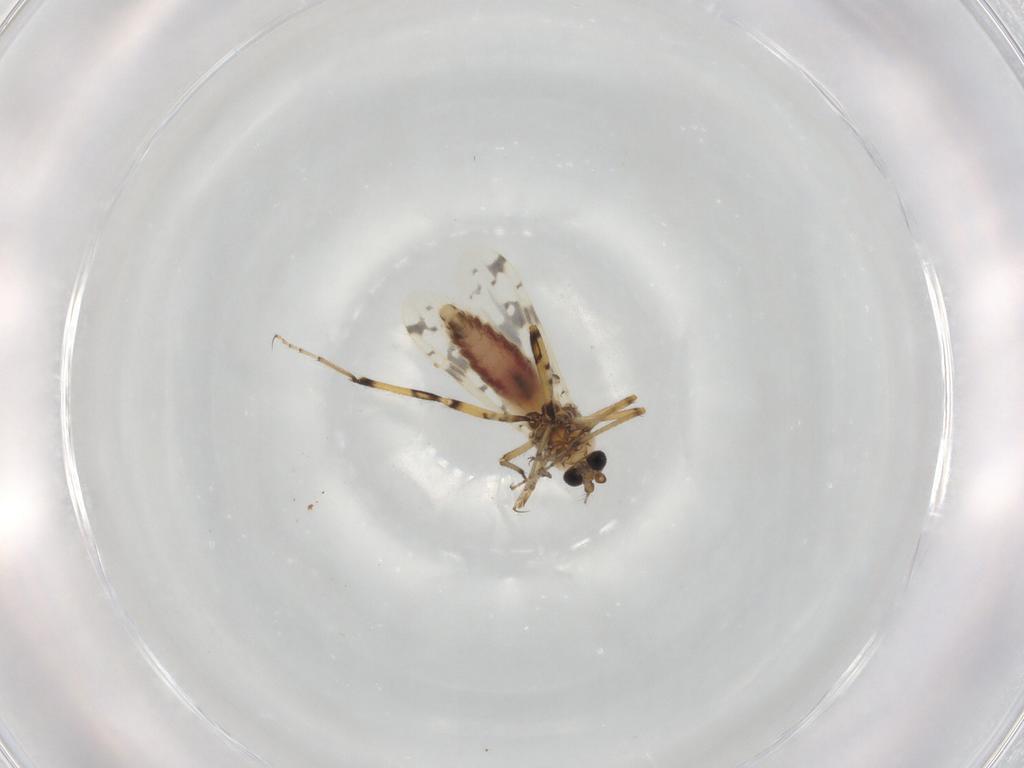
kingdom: Animalia
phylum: Arthropoda
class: Insecta
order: Diptera
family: Ceratopogonidae
